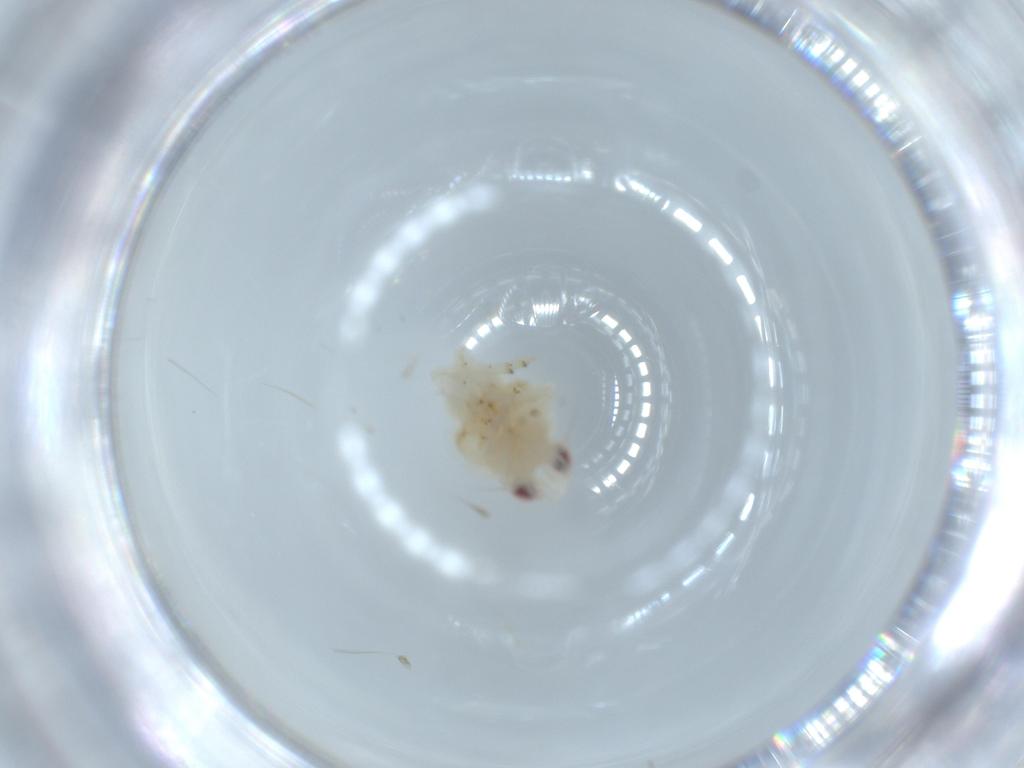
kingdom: Animalia
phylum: Arthropoda
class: Insecta
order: Hemiptera
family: Nogodinidae
